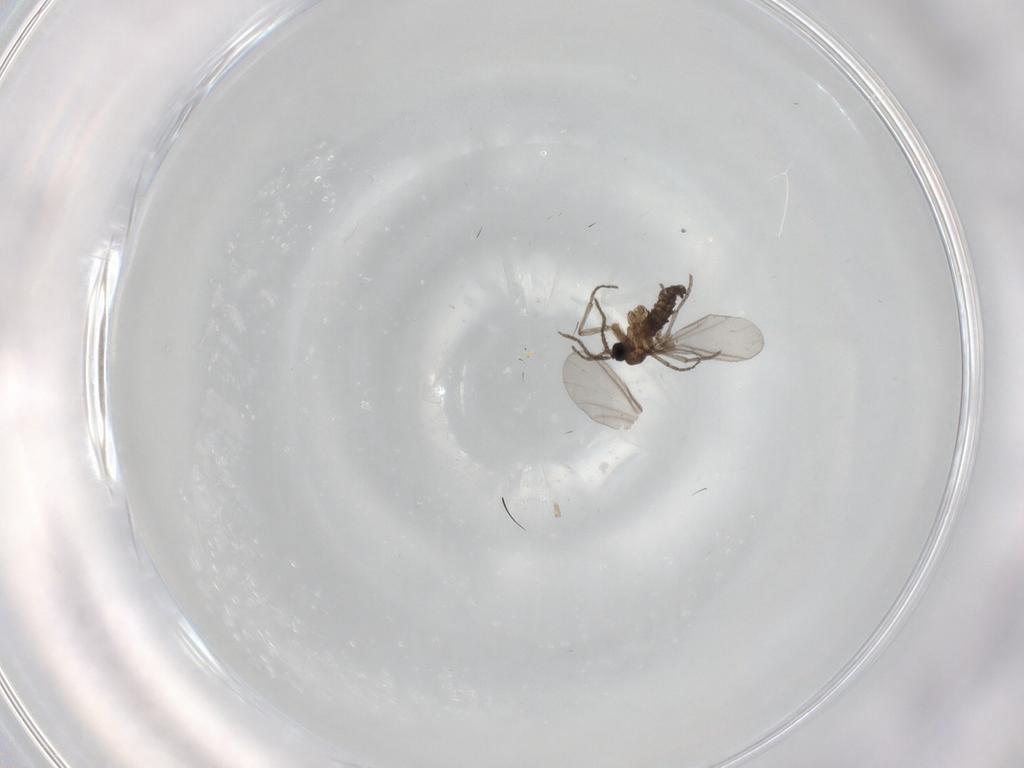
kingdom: Animalia
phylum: Arthropoda
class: Insecta
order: Diptera
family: Sciaridae
